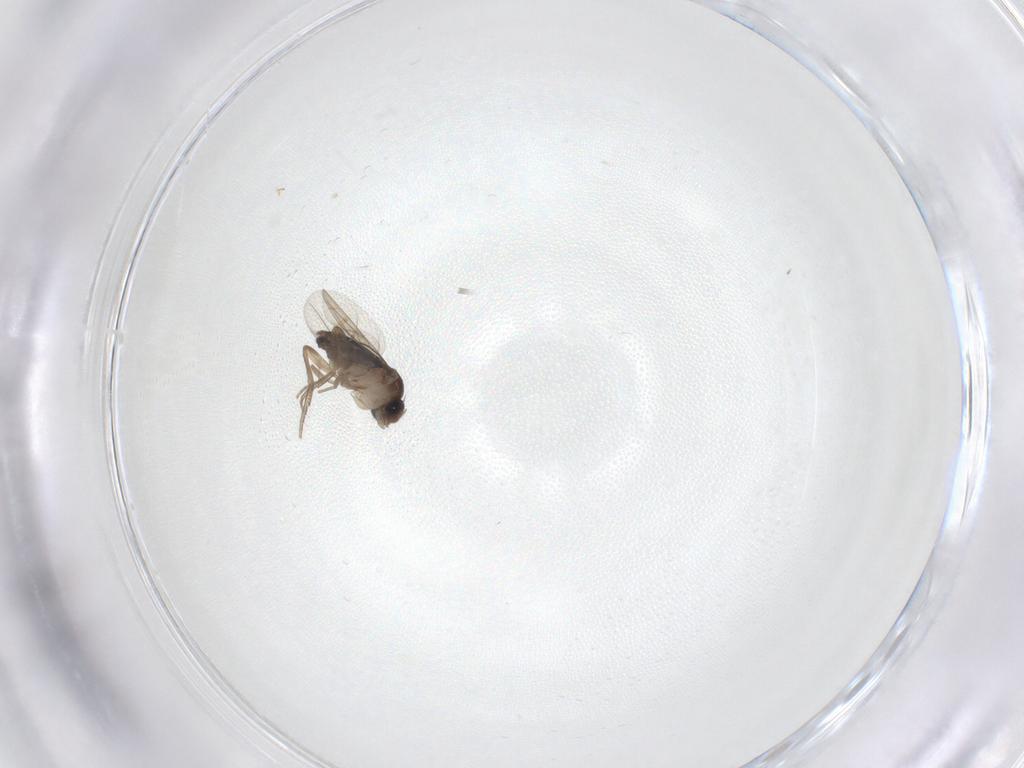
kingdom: Animalia
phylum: Arthropoda
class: Insecta
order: Diptera
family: Phoridae
